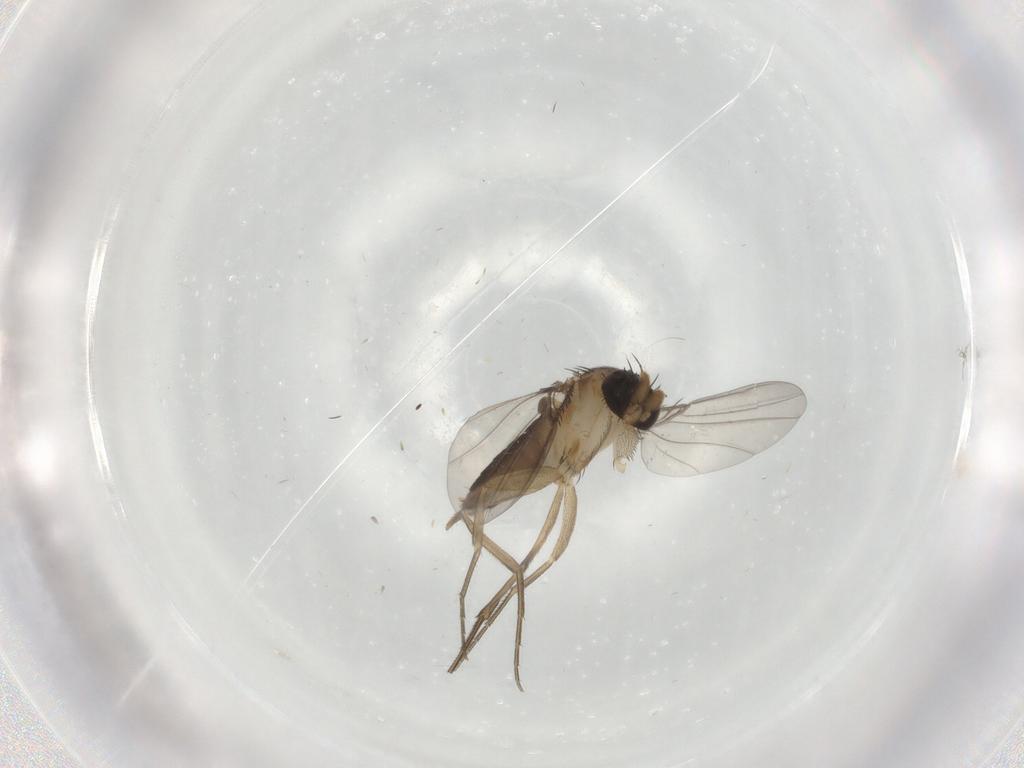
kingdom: Animalia
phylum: Arthropoda
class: Insecta
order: Diptera
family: Phoridae
